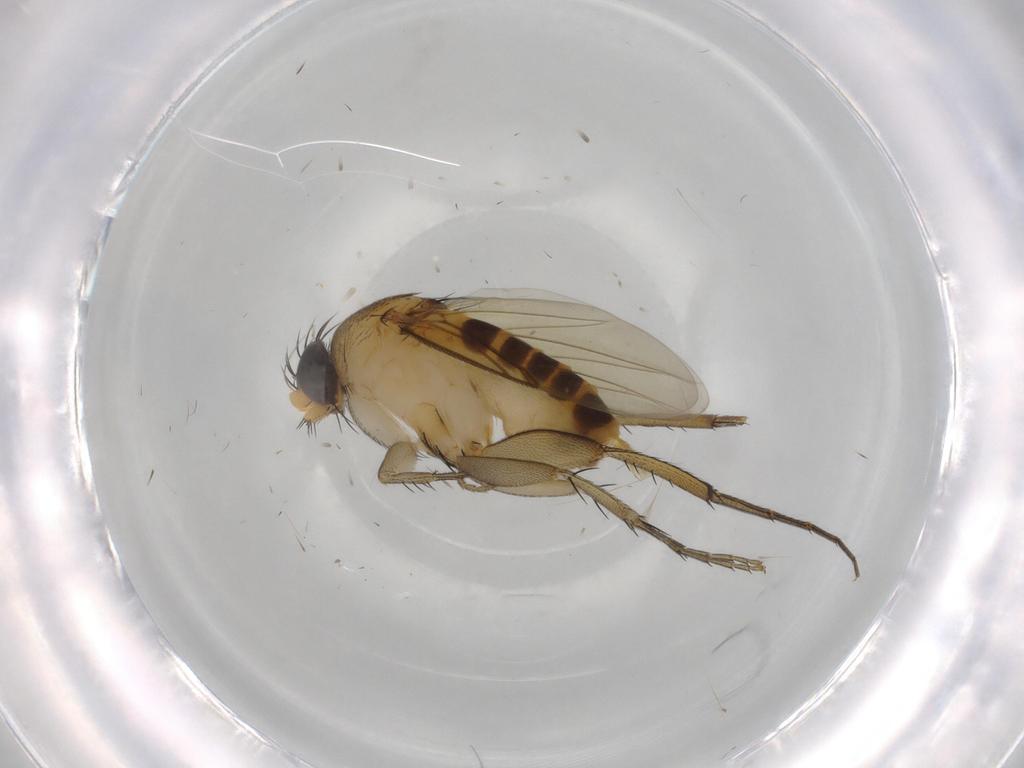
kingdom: Animalia
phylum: Arthropoda
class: Insecta
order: Diptera
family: Phoridae
